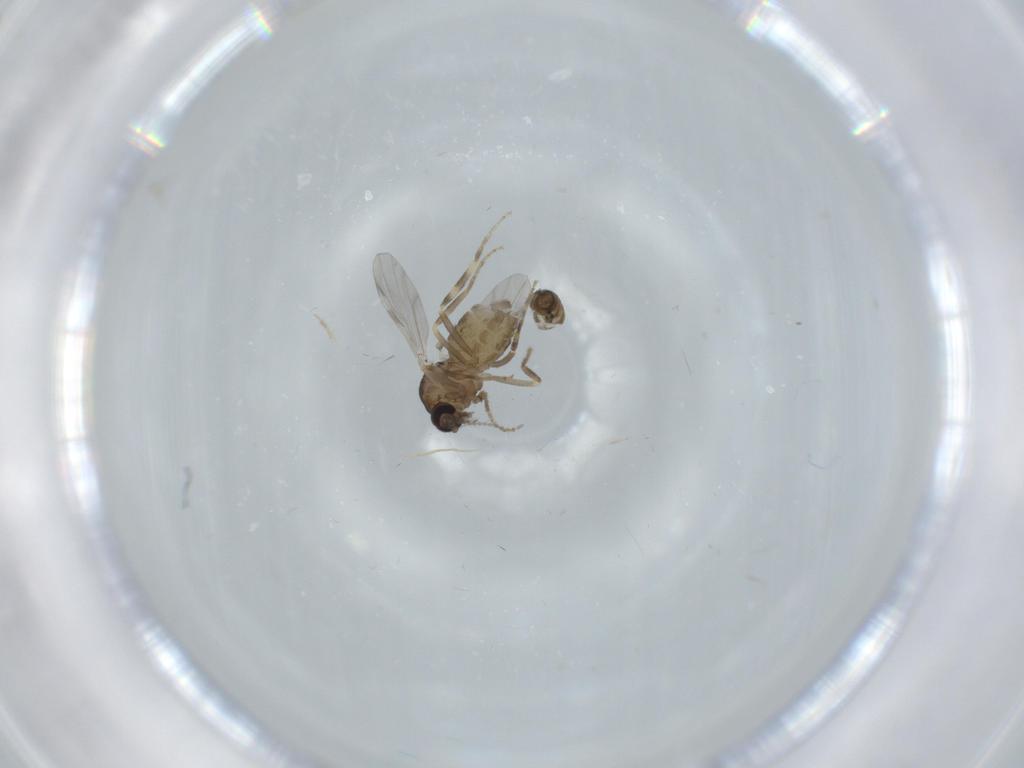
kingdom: Animalia
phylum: Arthropoda
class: Insecta
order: Diptera
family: Ceratopogonidae
